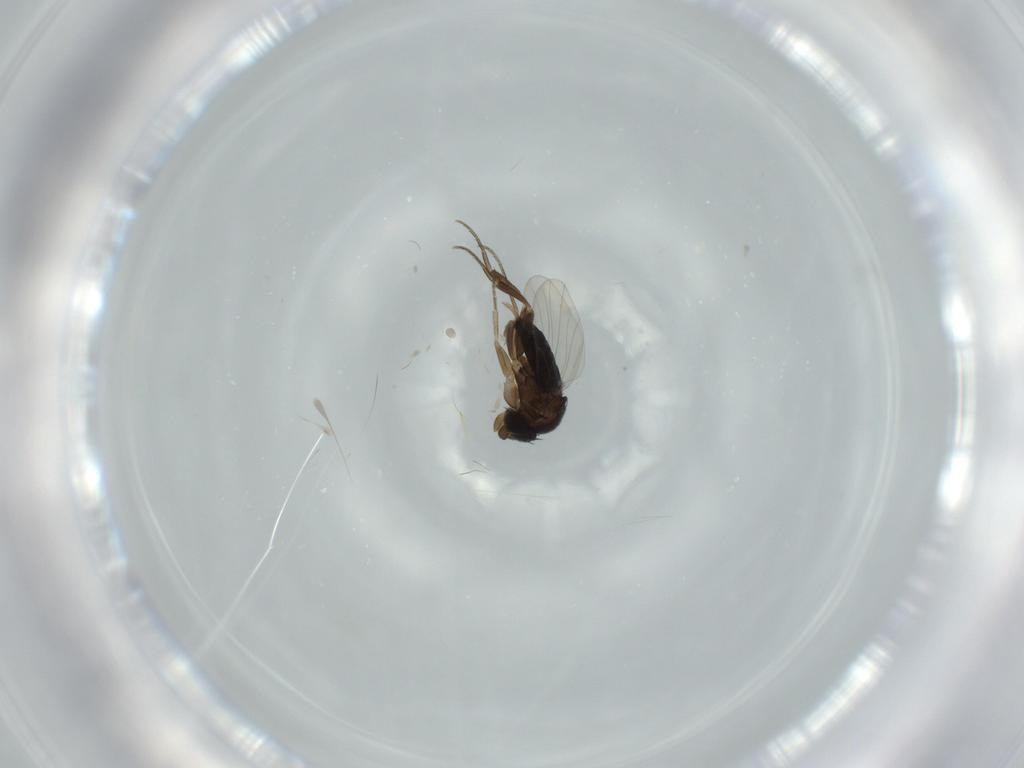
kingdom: Animalia
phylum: Arthropoda
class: Insecta
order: Diptera
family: Phoridae
